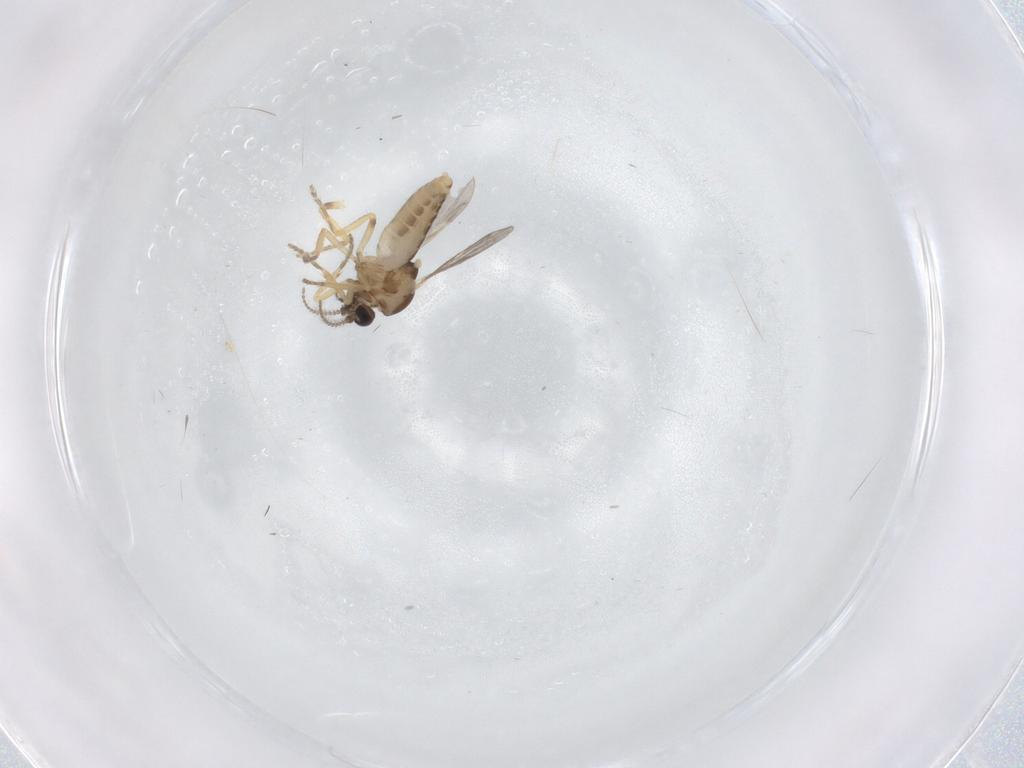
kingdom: Animalia
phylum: Arthropoda
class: Insecta
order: Diptera
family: Ceratopogonidae
